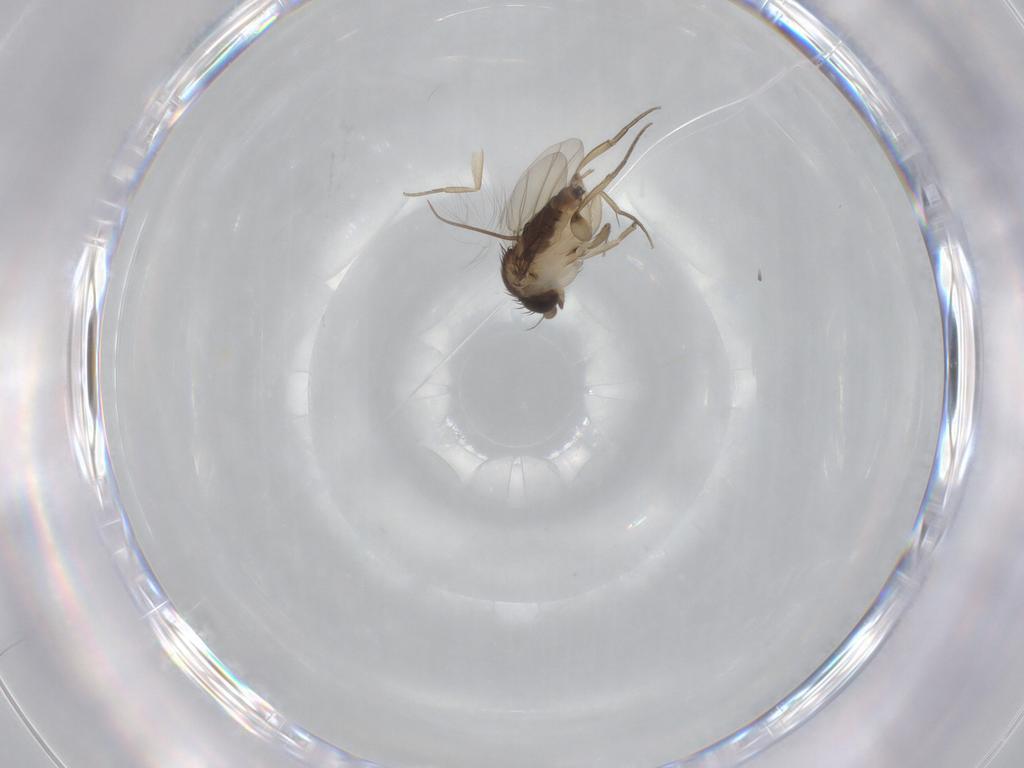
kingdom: Animalia
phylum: Arthropoda
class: Insecta
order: Diptera
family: Phoridae
